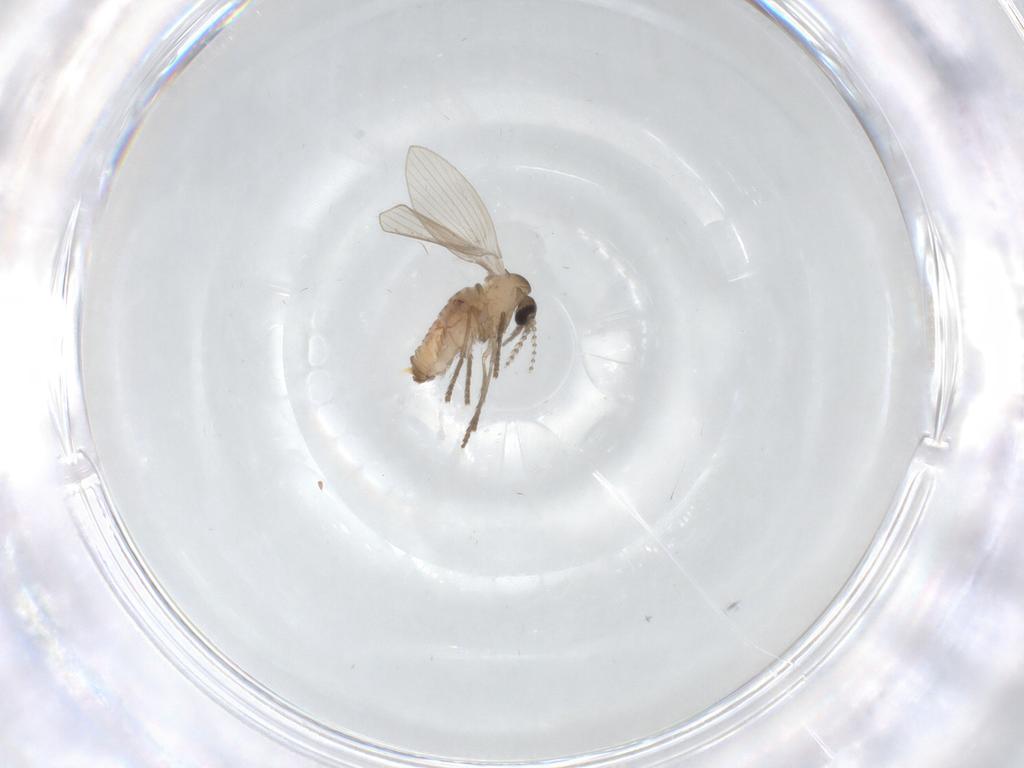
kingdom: Animalia
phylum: Arthropoda
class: Insecta
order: Diptera
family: Psychodidae
